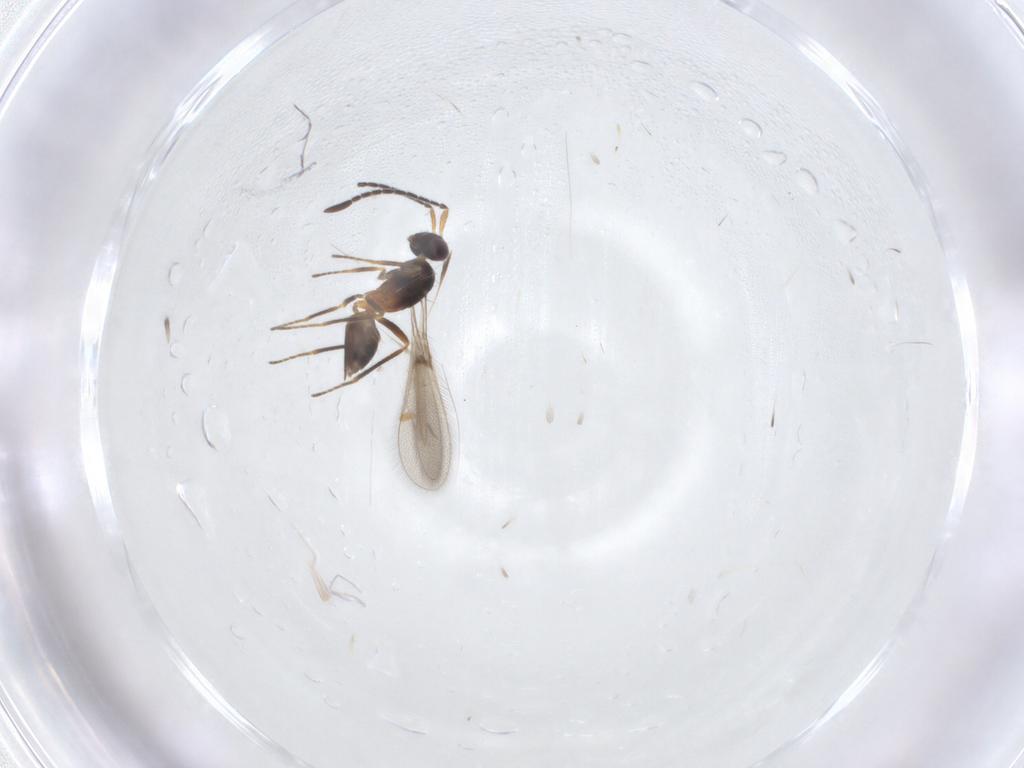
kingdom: Animalia
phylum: Arthropoda
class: Insecta
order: Hymenoptera
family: Mymaridae
